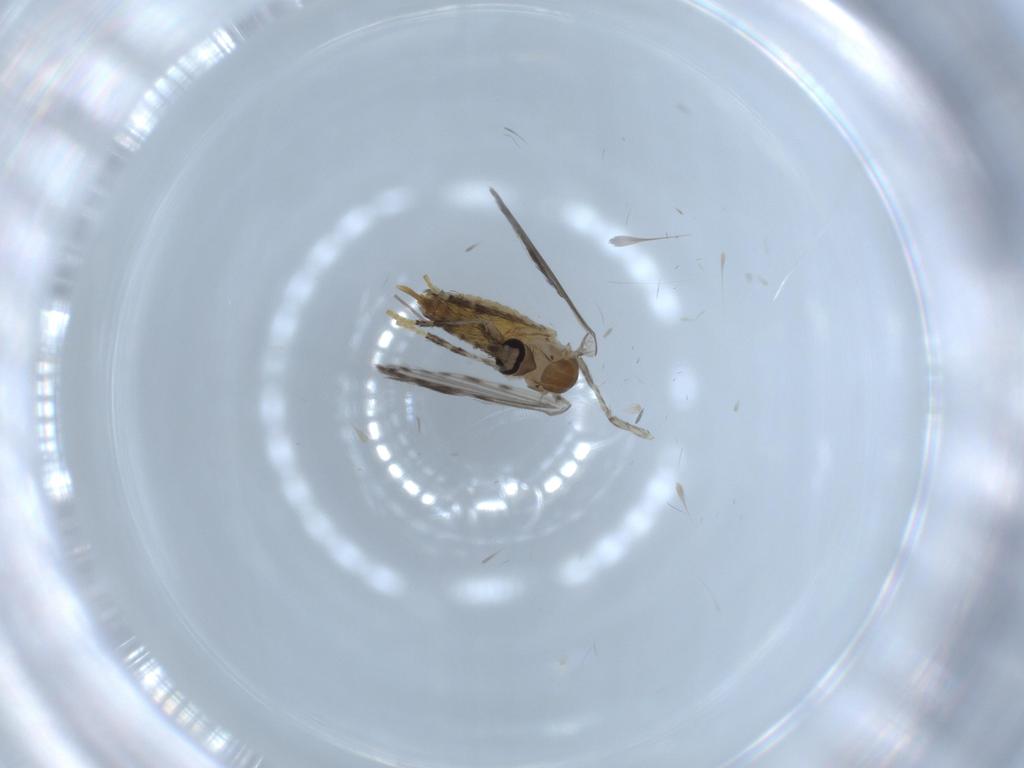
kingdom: Animalia
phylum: Arthropoda
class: Insecta
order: Diptera
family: Psychodidae
